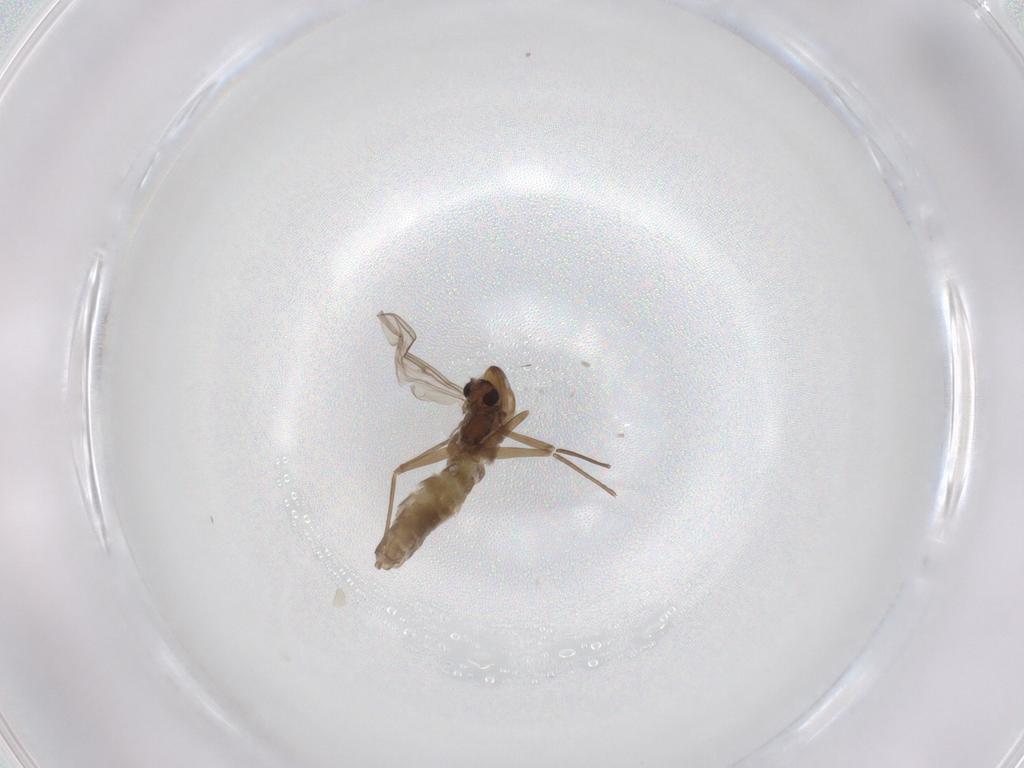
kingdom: Animalia
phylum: Arthropoda
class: Insecta
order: Diptera
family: Chironomidae
